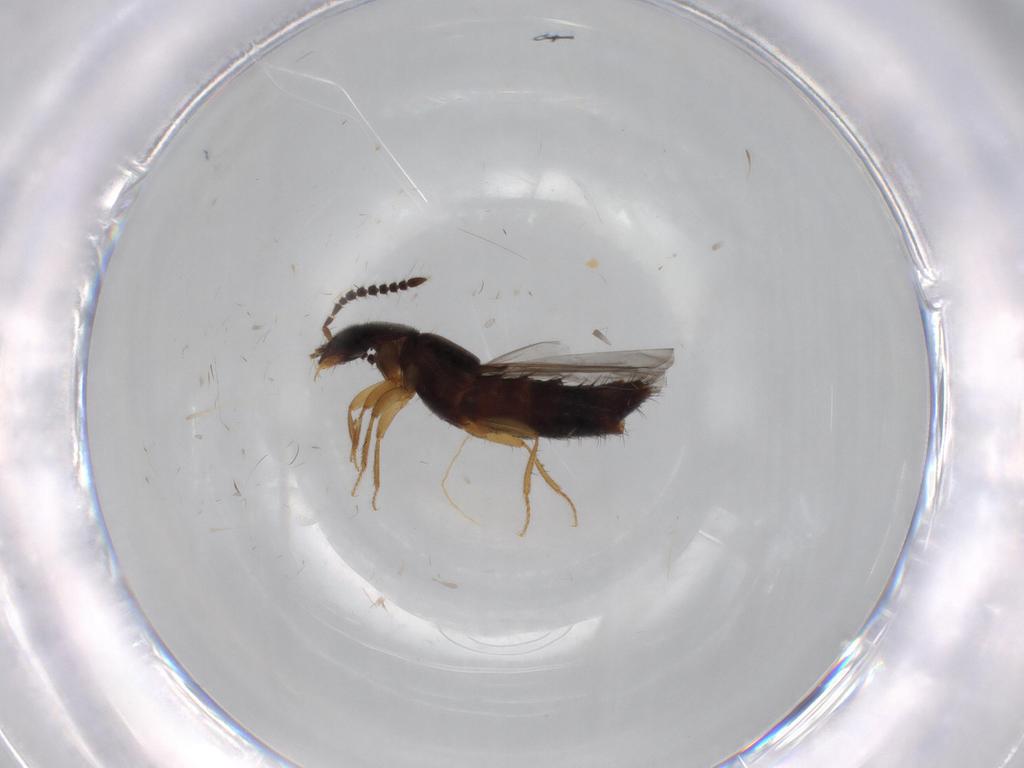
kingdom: Animalia
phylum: Arthropoda
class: Insecta
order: Coleoptera
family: Staphylinidae
